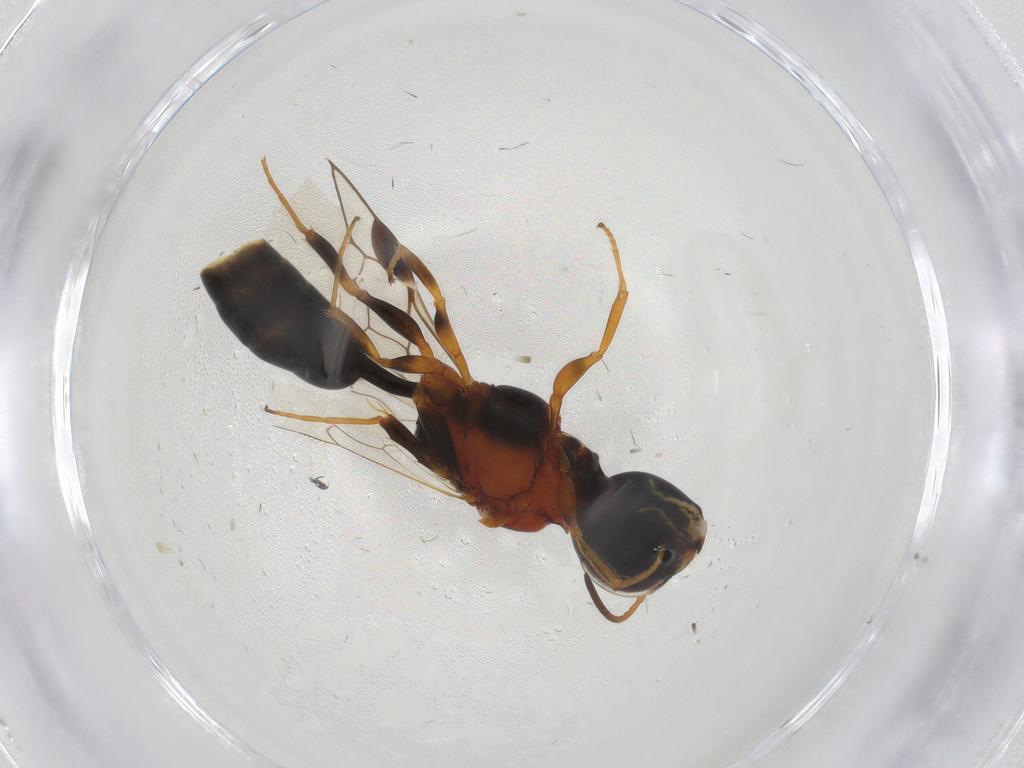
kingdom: Animalia
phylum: Arthropoda
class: Insecta
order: Hymenoptera
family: Pemphredonidae
